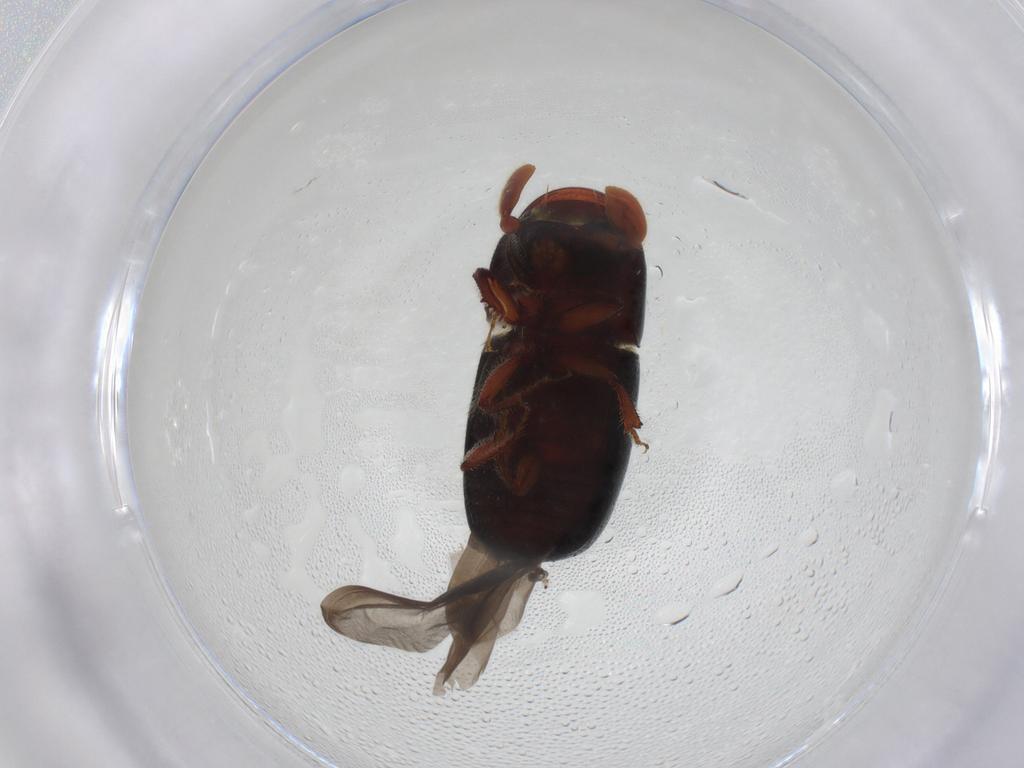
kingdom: Animalia
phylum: Arthropoda
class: Insecta
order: Coleoptera
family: Curculionidae
